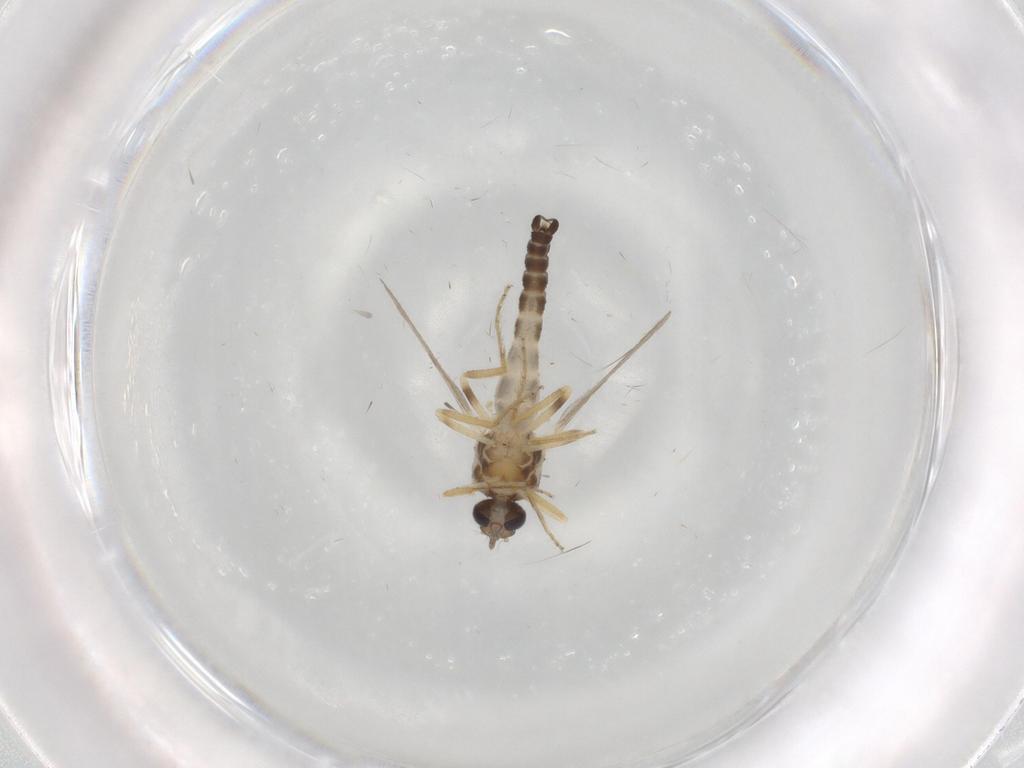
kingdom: Animalia
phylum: Arthropoda
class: Insecta
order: Diptera
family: Ceratopogonidae
